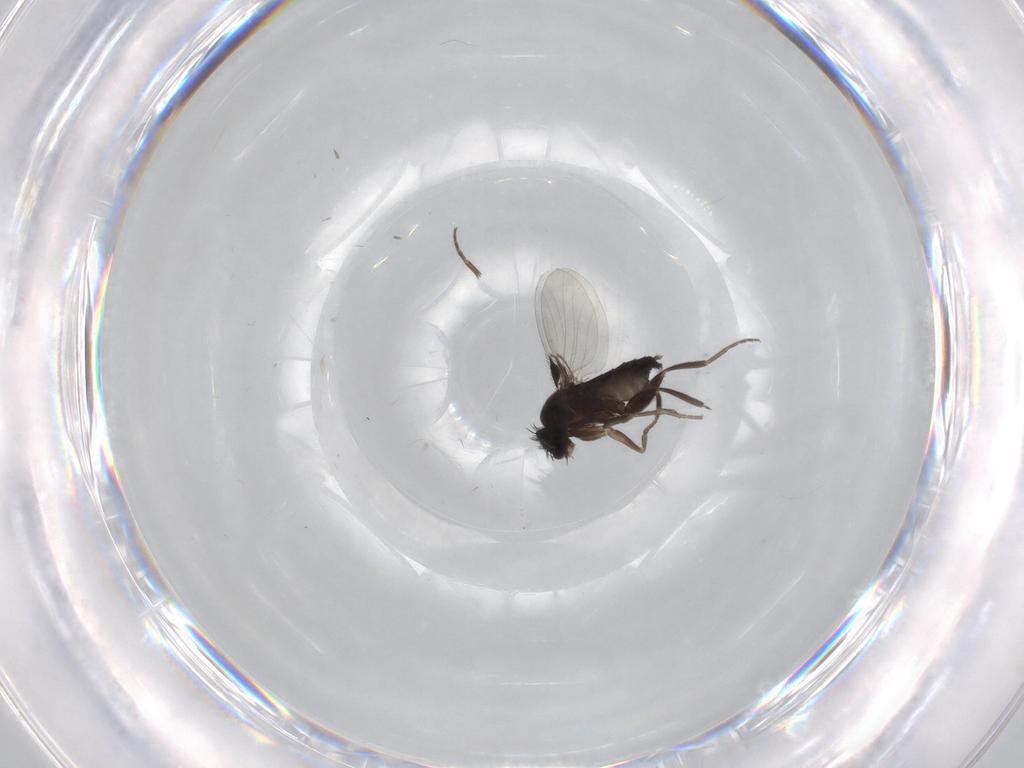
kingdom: Animalia
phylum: Arthropoda
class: Insecta
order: Diptera
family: Phoridae
